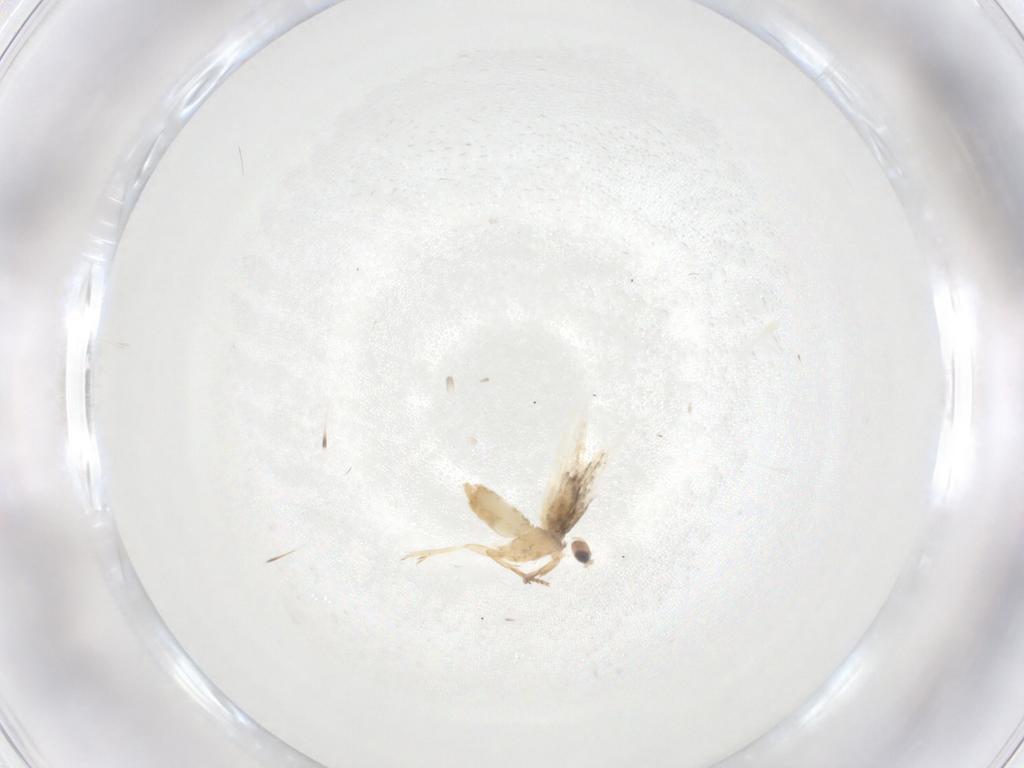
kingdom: Animalia
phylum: Arthropoda
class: Insecta
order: Lepidoptera
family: Nepticulidae
